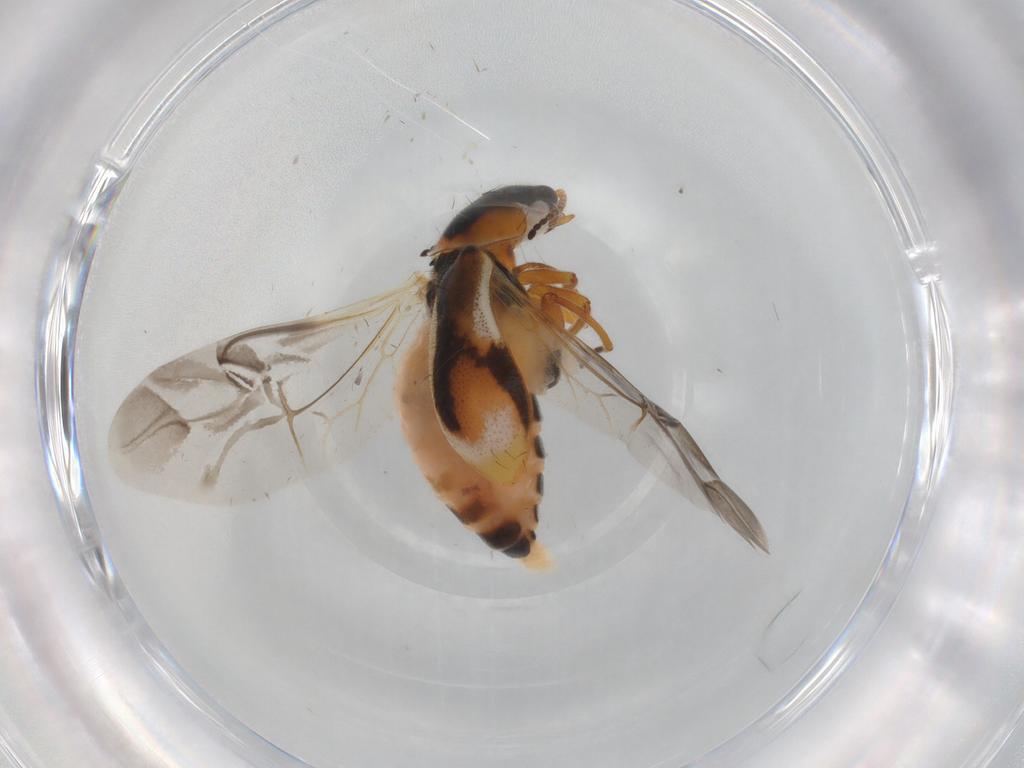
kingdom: Animalia
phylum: Arthropoda
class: Insecta
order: Coleoptera
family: Melyridae
